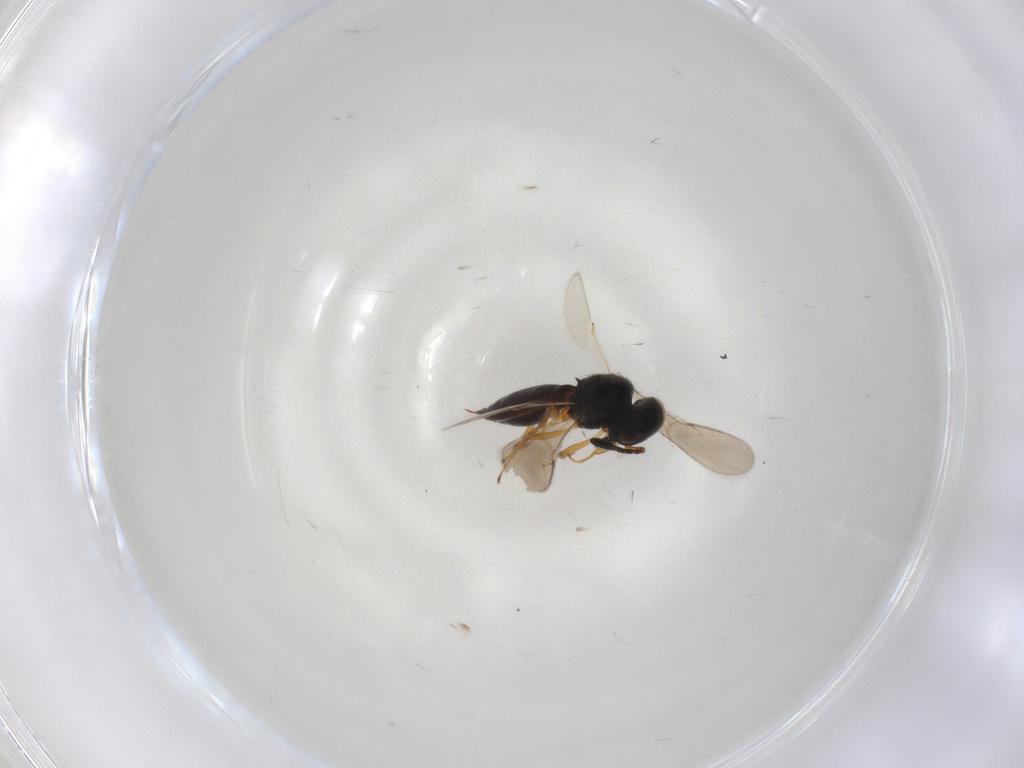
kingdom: Animalia
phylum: Arthropoda
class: Insecta
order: Hymenoptera
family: Scelionidae
